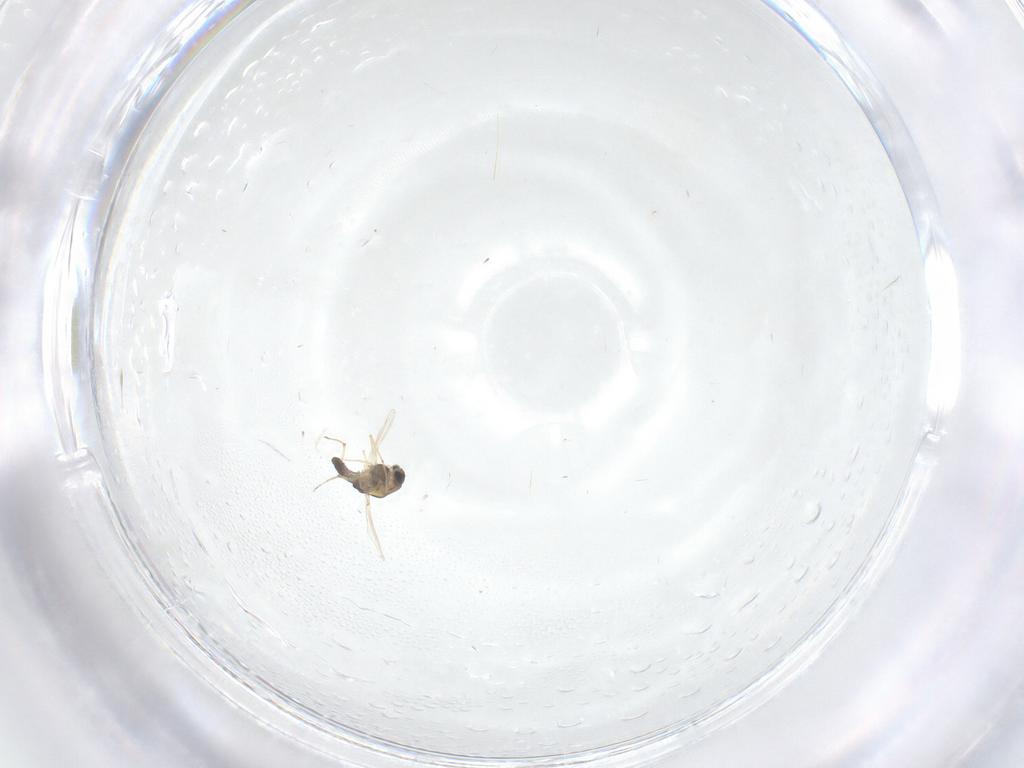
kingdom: Animalia
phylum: Arthropoda
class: Insecta
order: Diptera
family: Chironomidae
